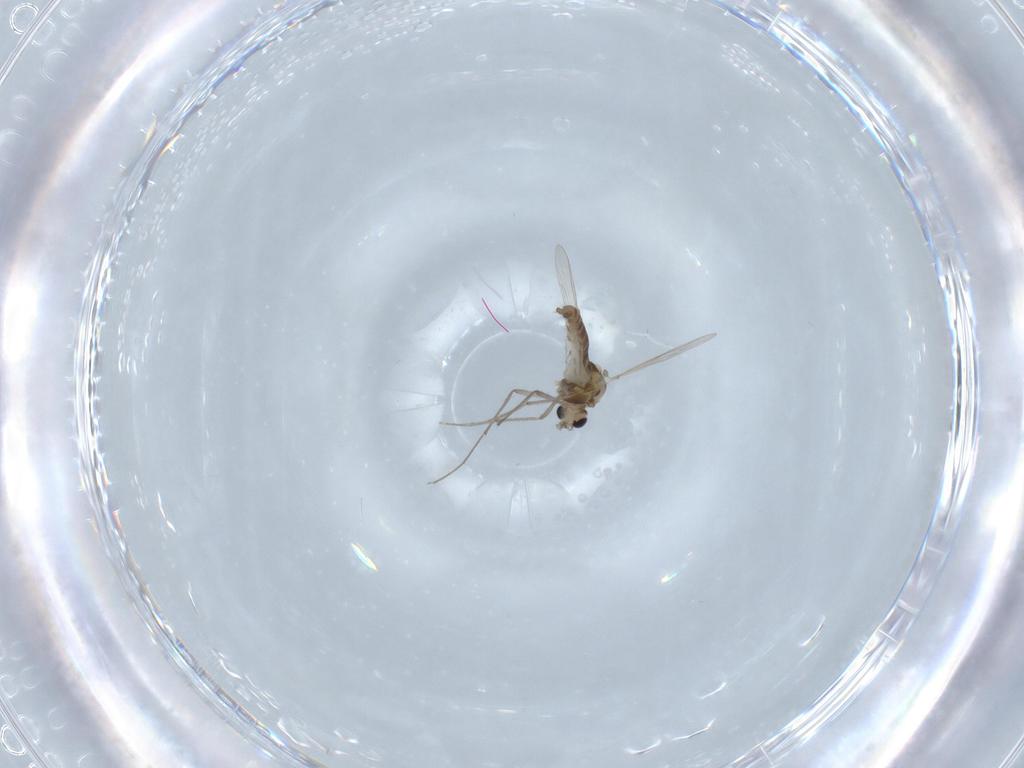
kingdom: Animalia
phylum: Arthropoda
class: Insecta
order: Diptera
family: Chironomidae
